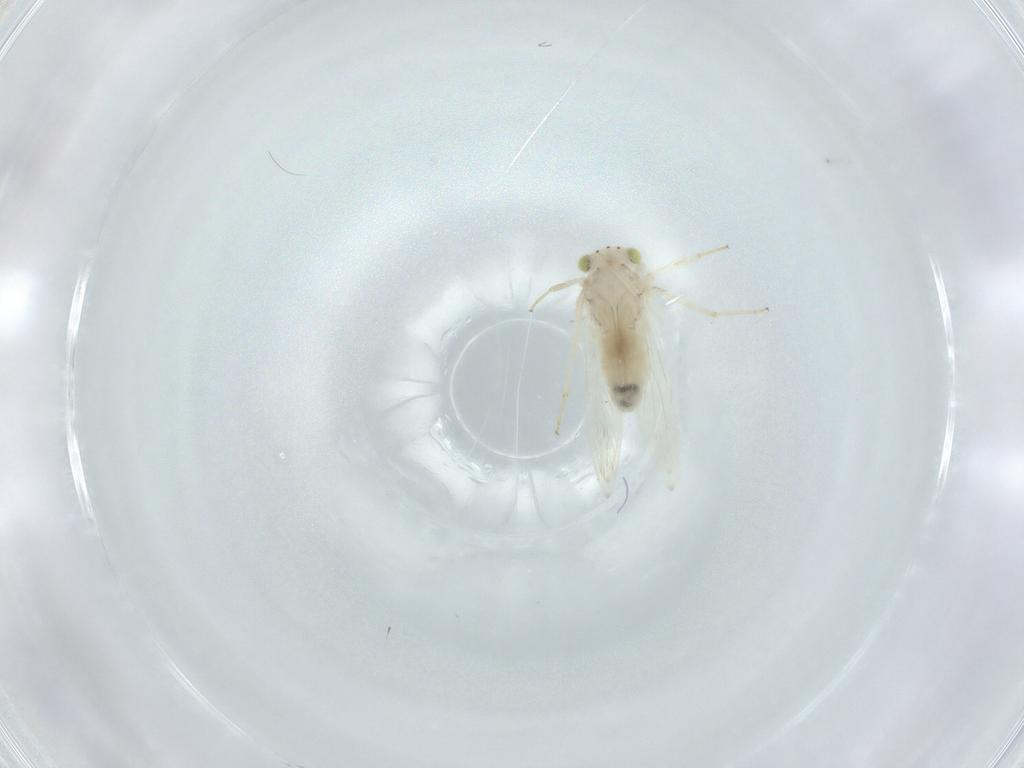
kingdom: Animalia
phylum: Arthropoda
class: Insecta
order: Psocodea
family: Lepidopsocidae
